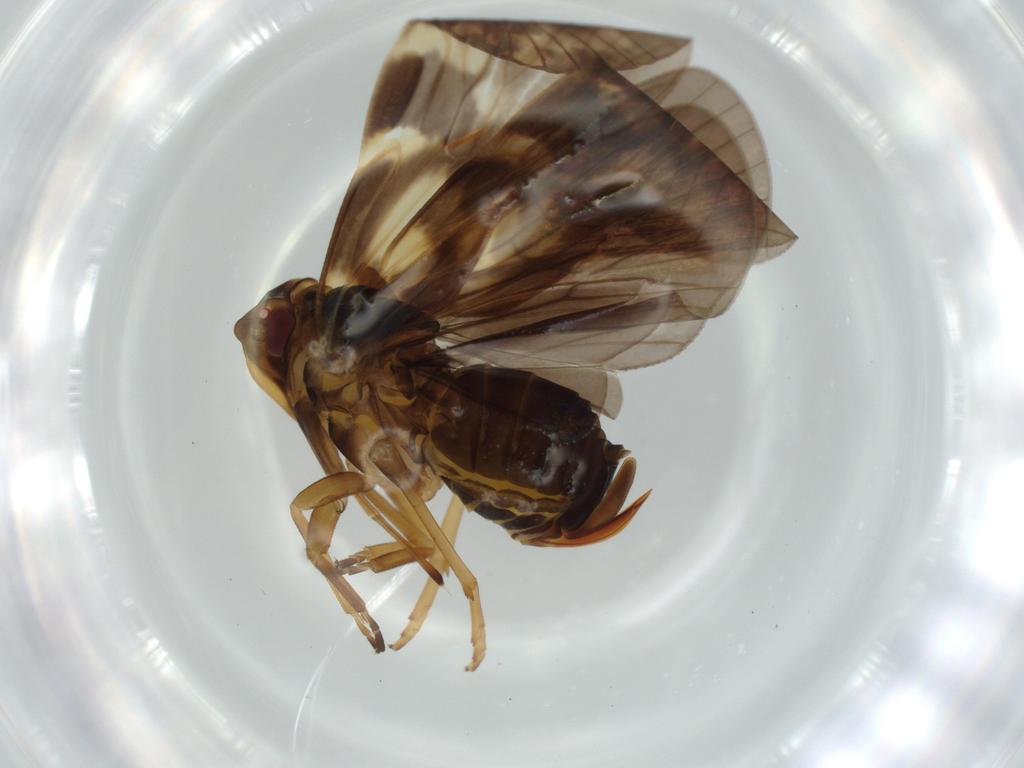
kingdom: Animalia
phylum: Arthropoda
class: Insecta
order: Hemiptera
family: Cixiidae
